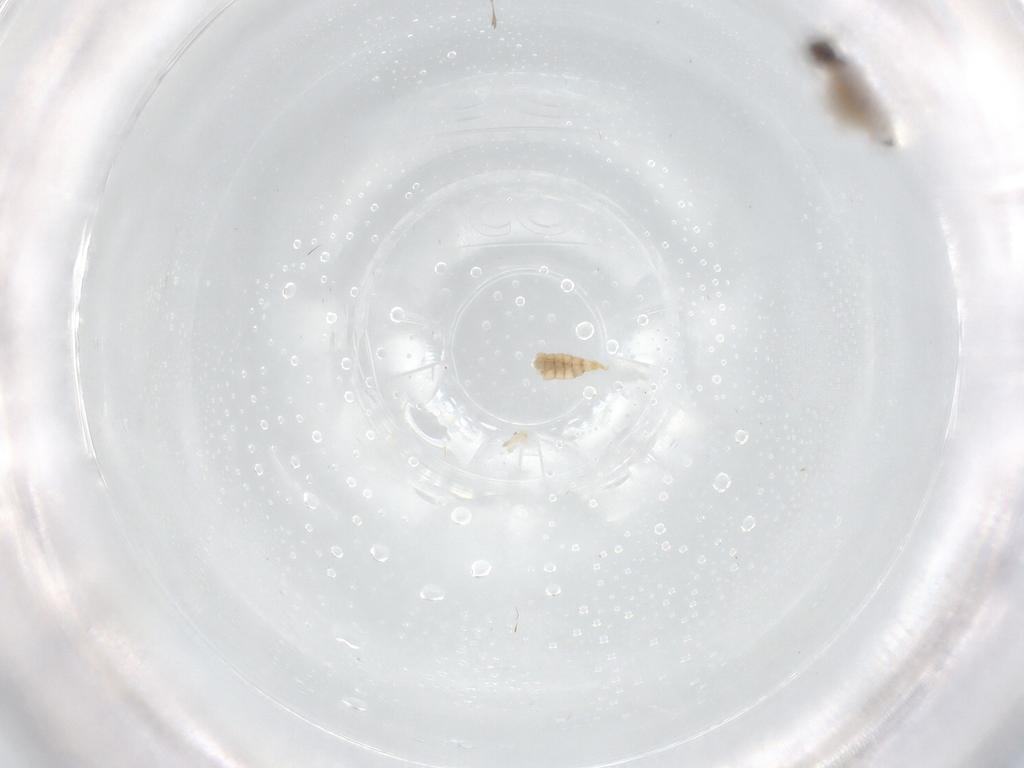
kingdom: Animalia
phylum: Arthropoda
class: Insecta
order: Diptera
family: Cecidomyiidae
